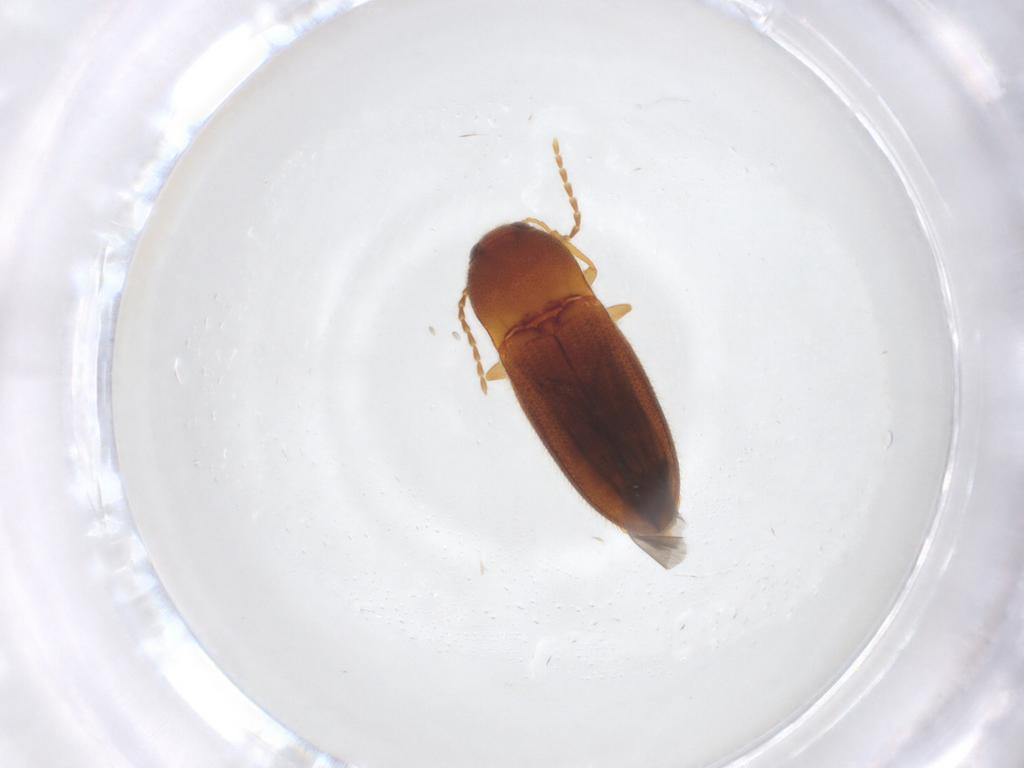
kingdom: Animalia
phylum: Arthropoda
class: Insecta
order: Coleoptera
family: Elateridae
